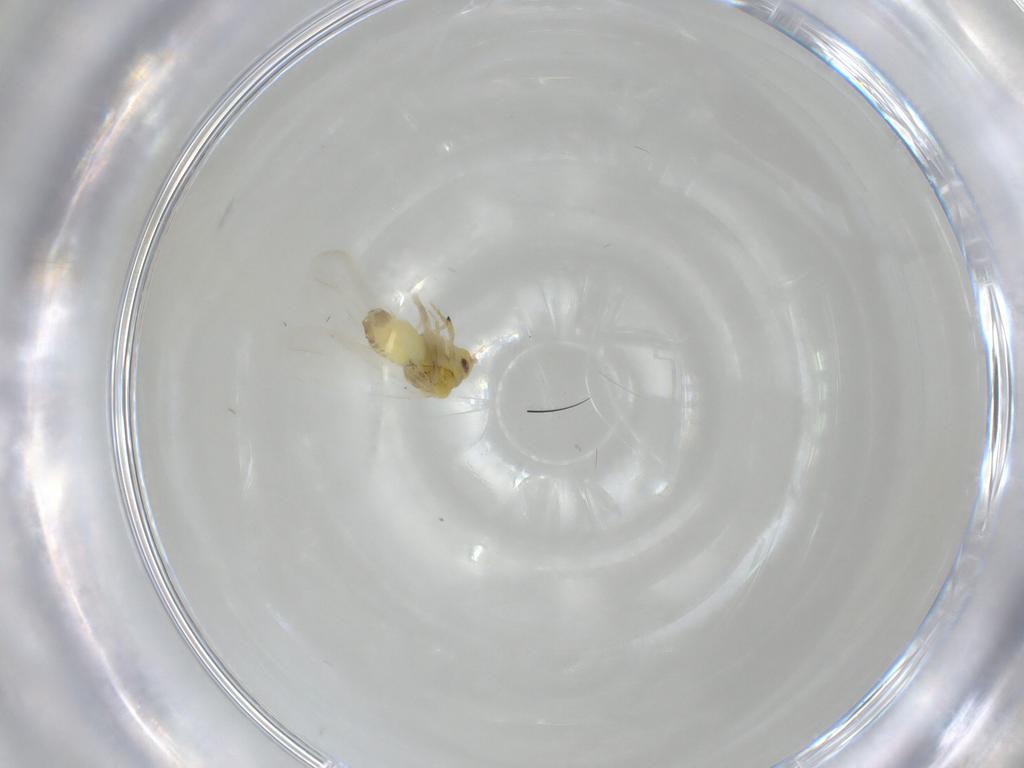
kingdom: Animalia
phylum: Arthropoda
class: Insecta
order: Hemiptera
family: Aleyrodidae
